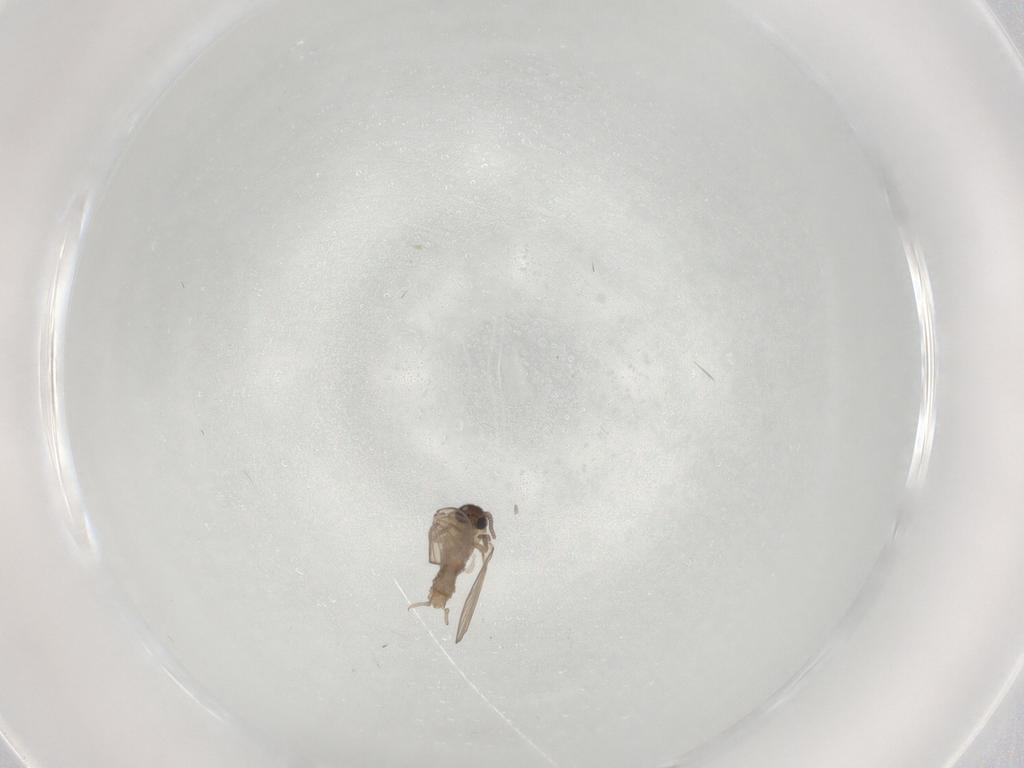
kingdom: Animalia
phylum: Arthropoda
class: Insecta
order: Diptera
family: Psychodidae
